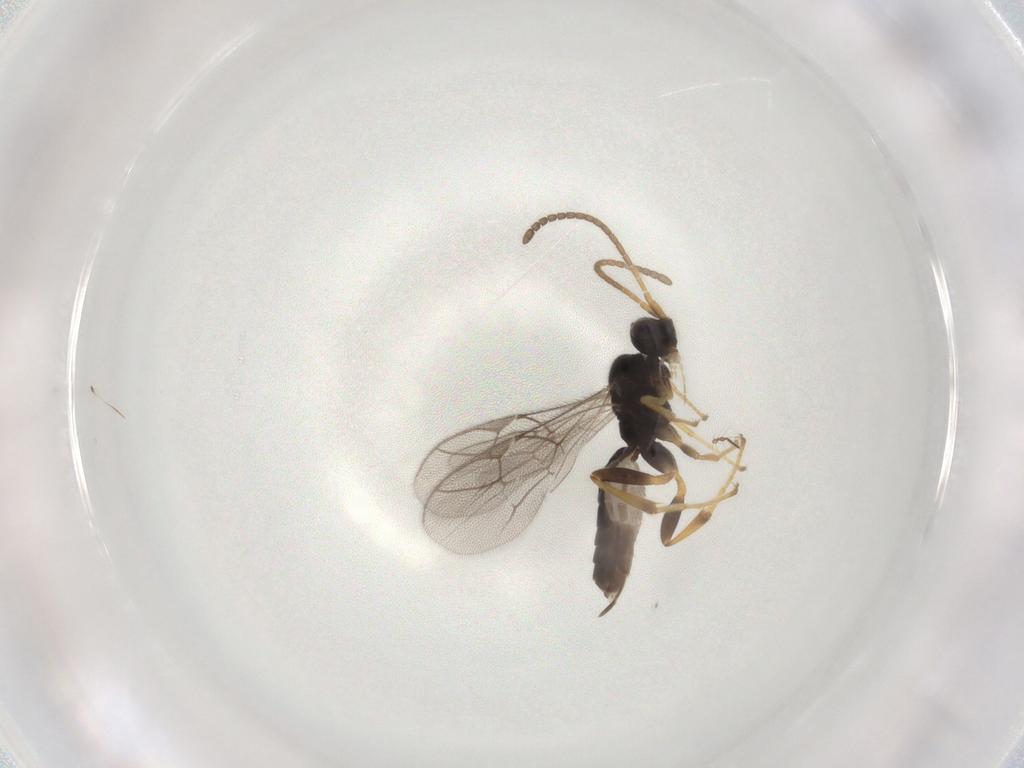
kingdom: Animalia
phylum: Arthropoda
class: Insecta
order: Hymenoptera
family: Ichneumonidae
